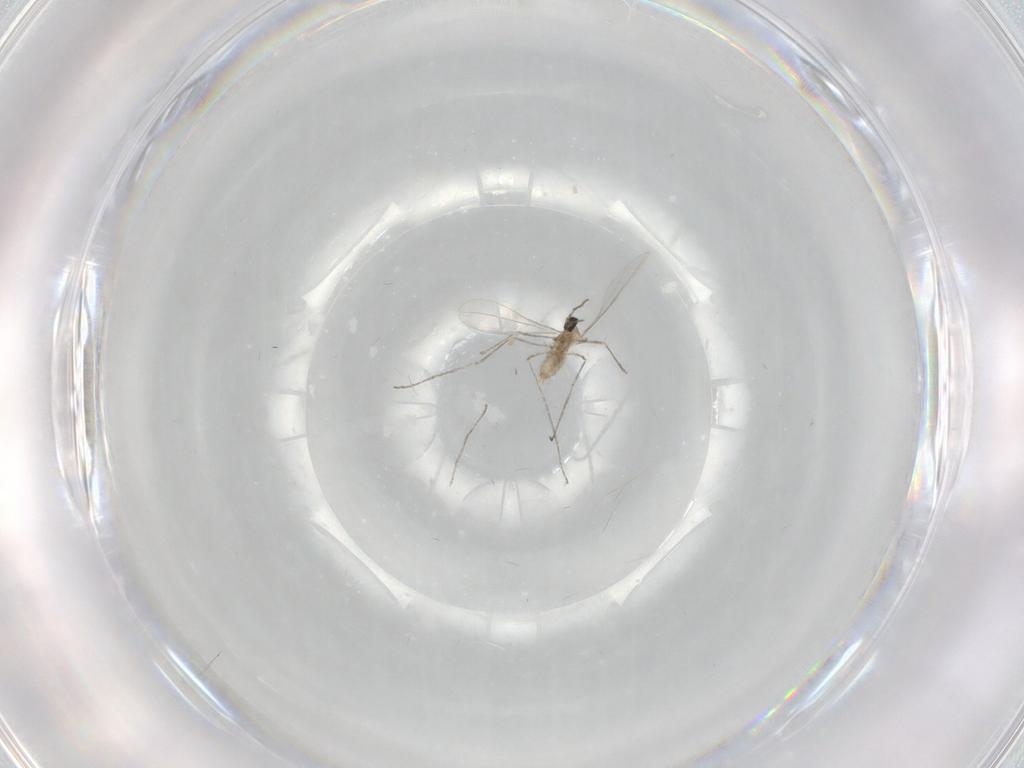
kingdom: Animalia
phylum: Arthropoda
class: Insecta
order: Diptera
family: Cecidomyiidae
